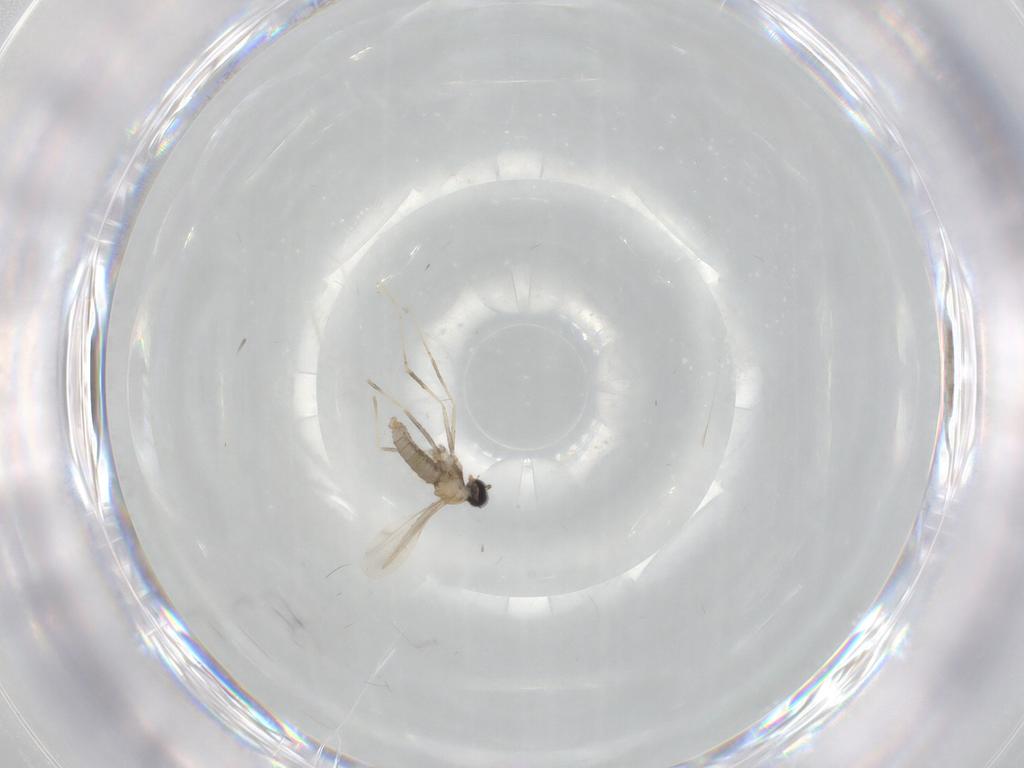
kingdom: Animalia
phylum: Arthropoda
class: Insecta
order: Diptera
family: Cecidomyiidae
